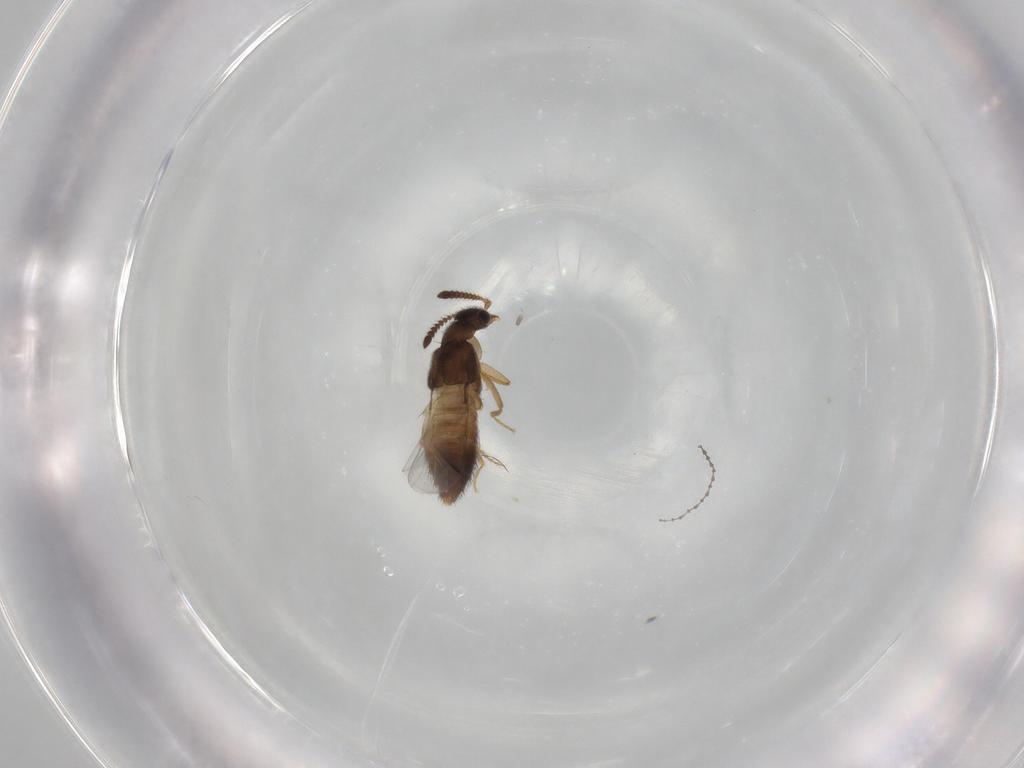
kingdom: Animalia
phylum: Arthropoda
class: Insecta
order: Coleoptera
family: Staphylinidae
